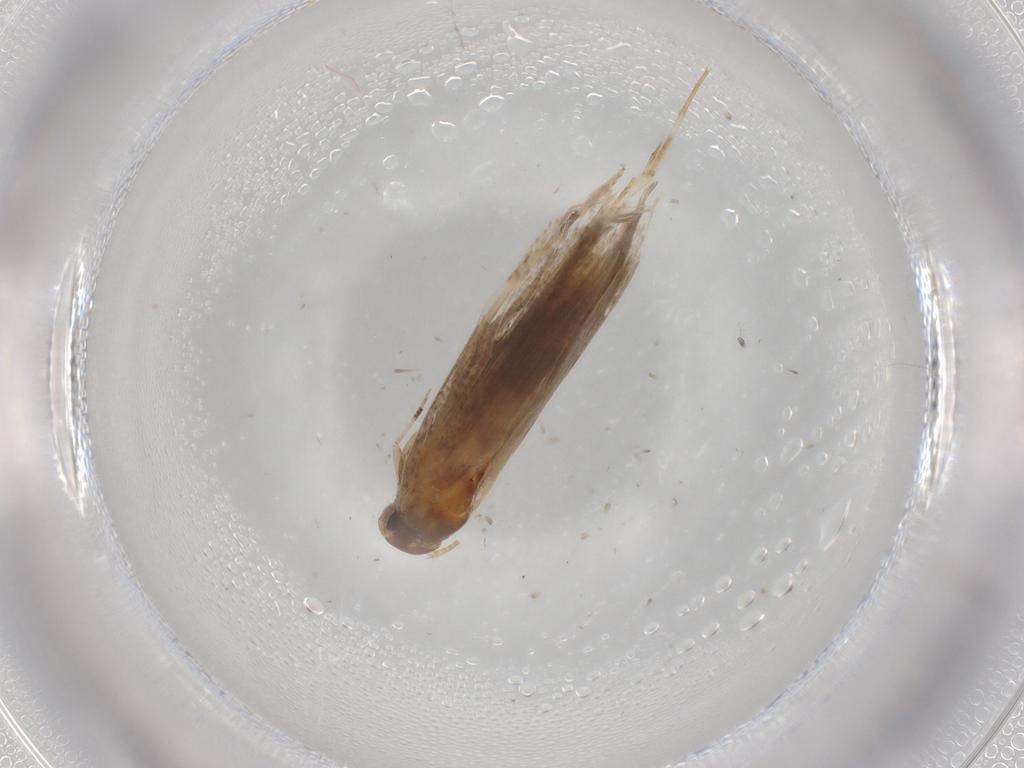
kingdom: Animalia
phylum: Arthropoda
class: Insecta
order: Lepidoptera
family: Gelechiidae
